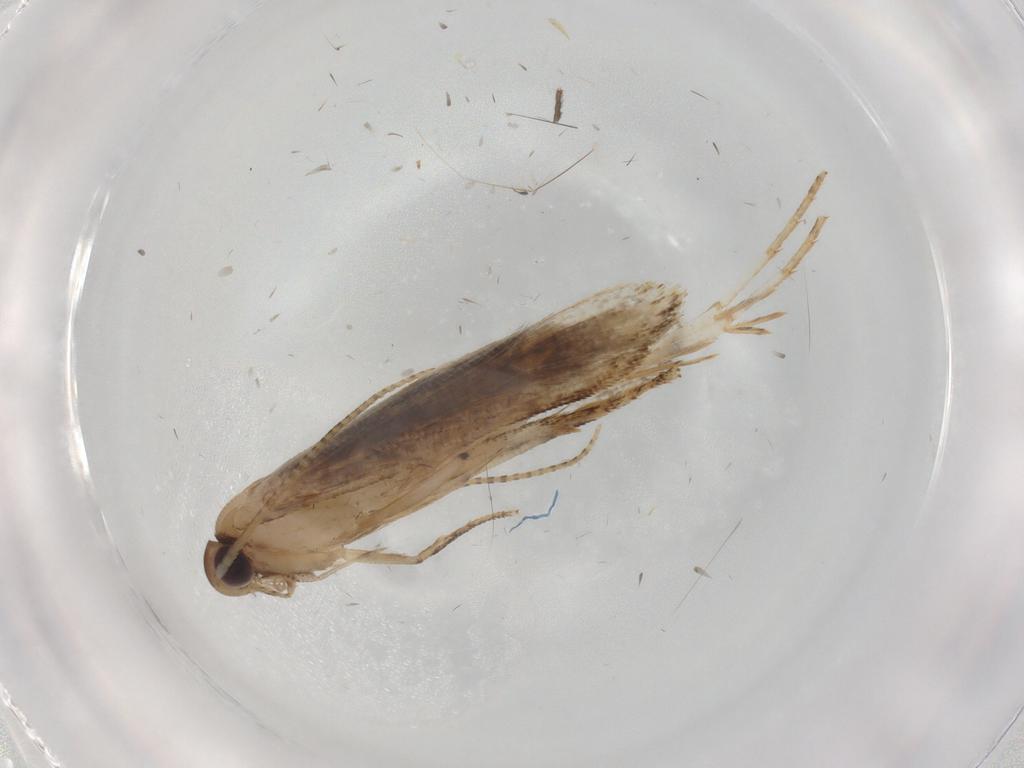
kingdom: Animalia
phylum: Arthropoda
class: Insecta
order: Lepidoptera
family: Gelechiidae
